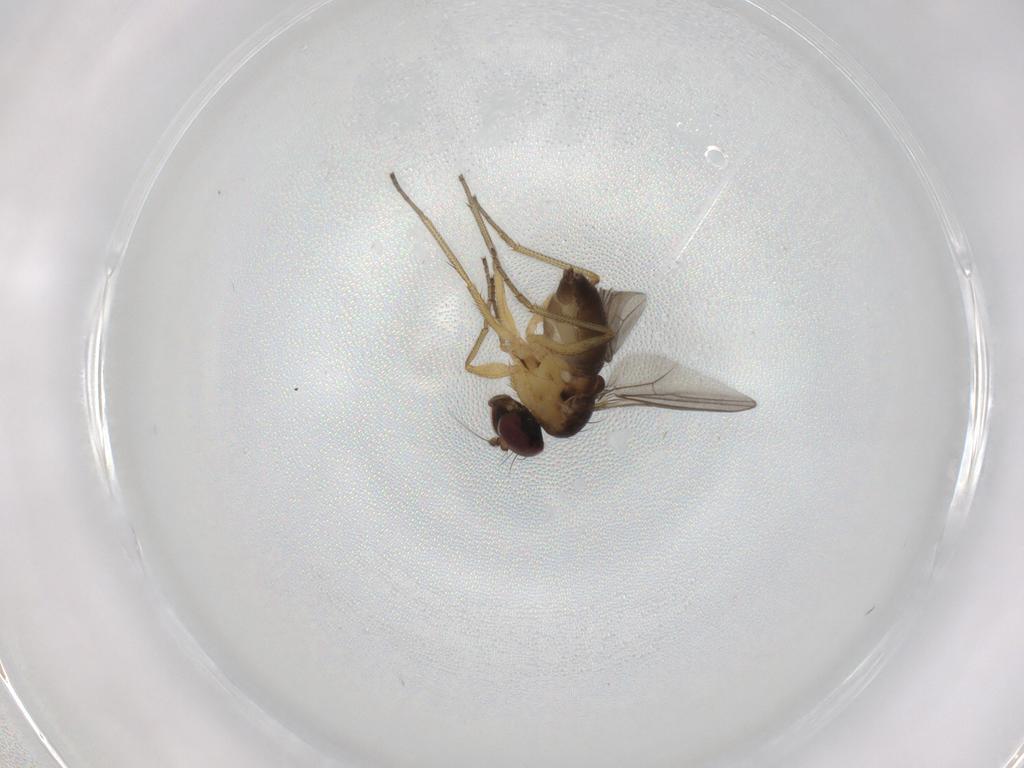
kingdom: Animalia
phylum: Arthropoda
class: Insecta
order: Diptera
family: Dolichopodidae
